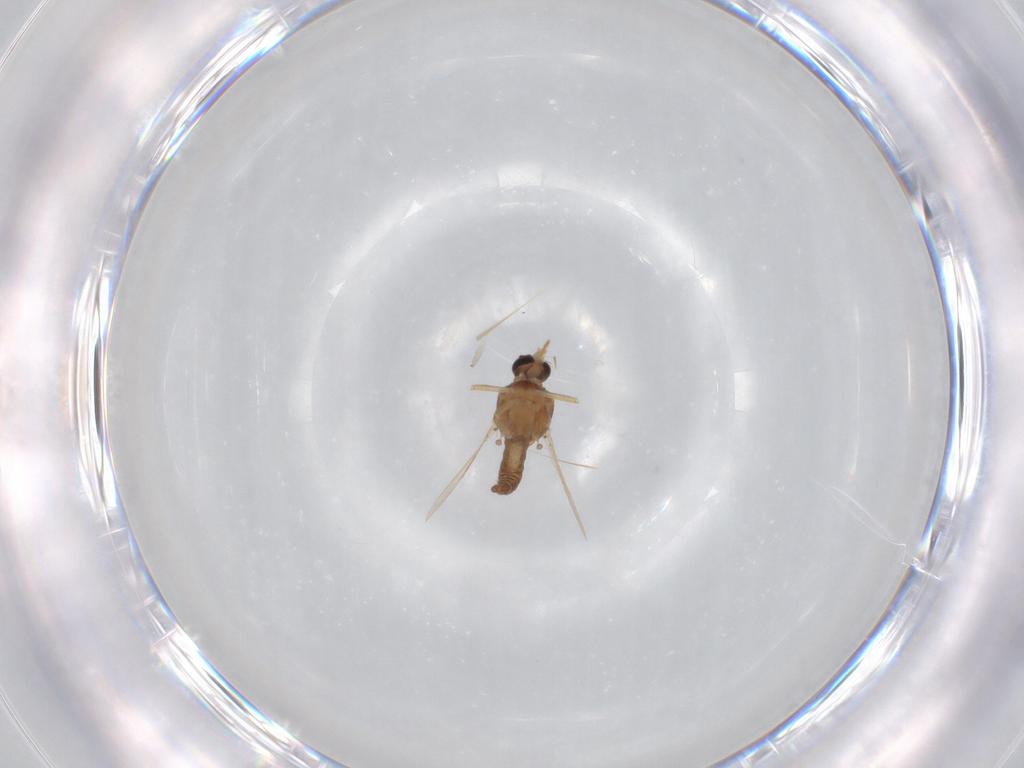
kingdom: Animalia
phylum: Arthropoda
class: Insecta
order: Diptera
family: Ceratopogonidae
